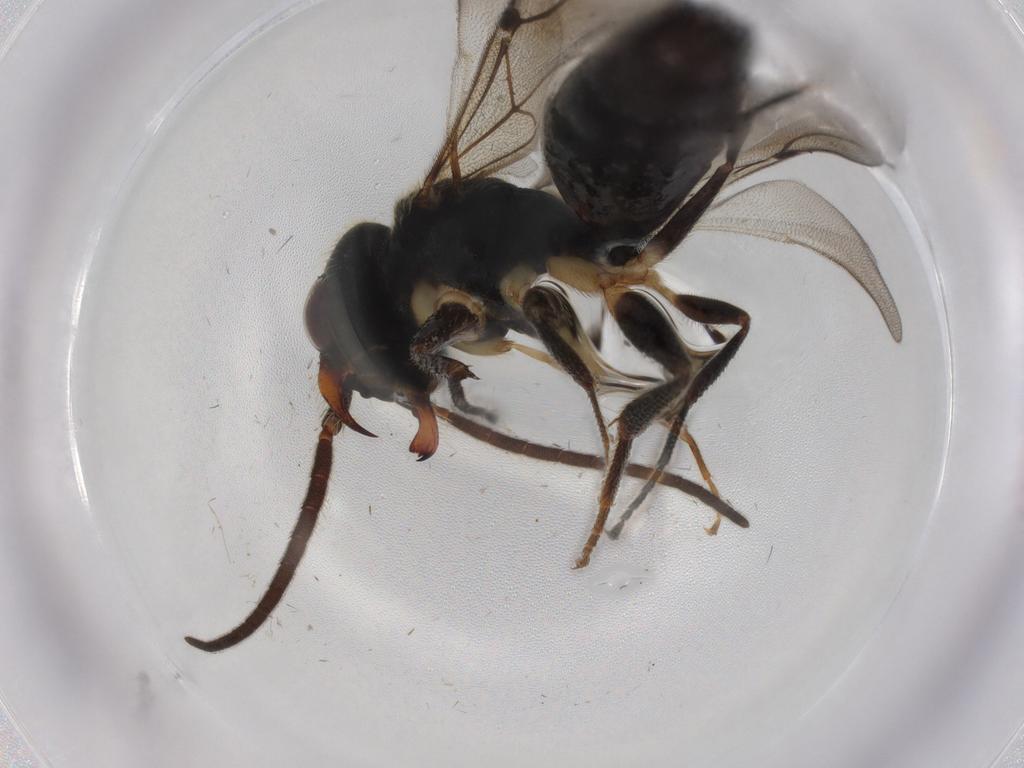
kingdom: Animalia
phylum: Arthropoda
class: Insecta
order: Hymenoptera
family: Bethylidae
